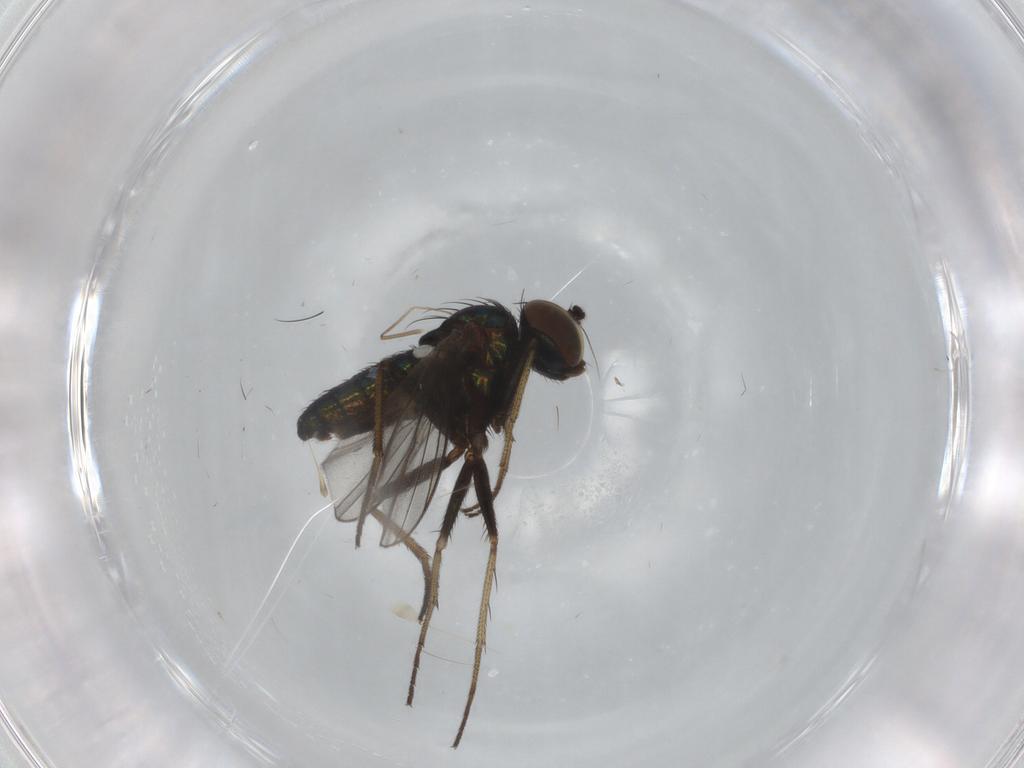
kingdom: Animalia
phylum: Arthropoda
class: Insecta
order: Diptera
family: Dolichopodidae
